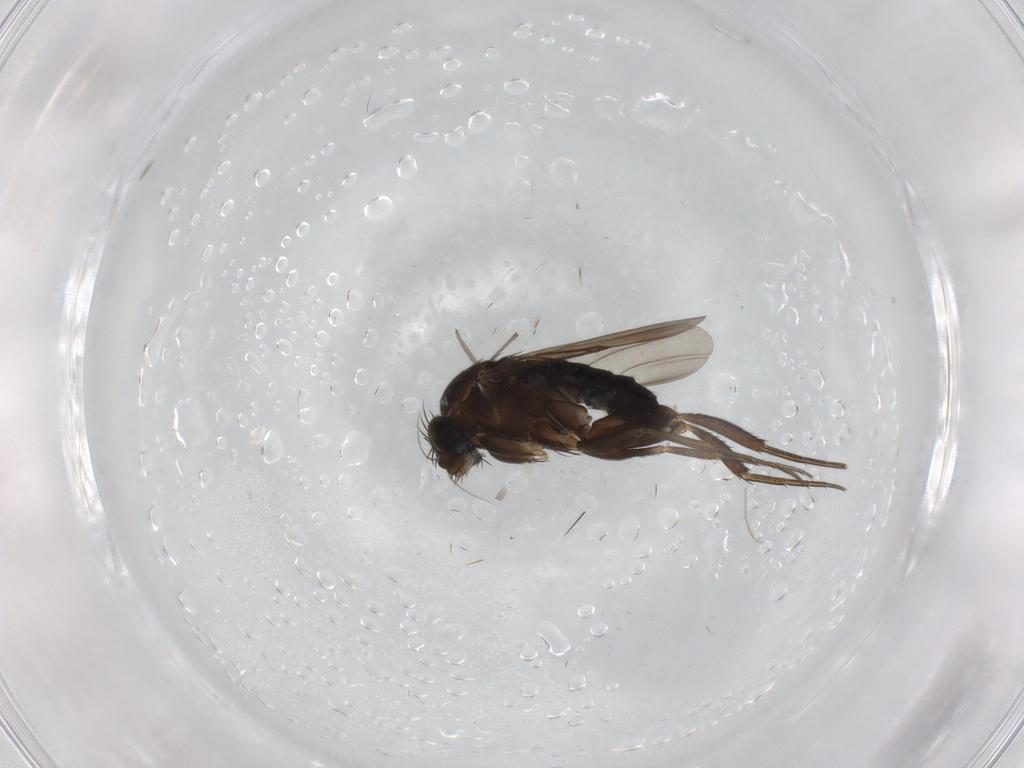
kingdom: Animalia
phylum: Arthropoda
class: Insecta
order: Diptera
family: Sciaridae
